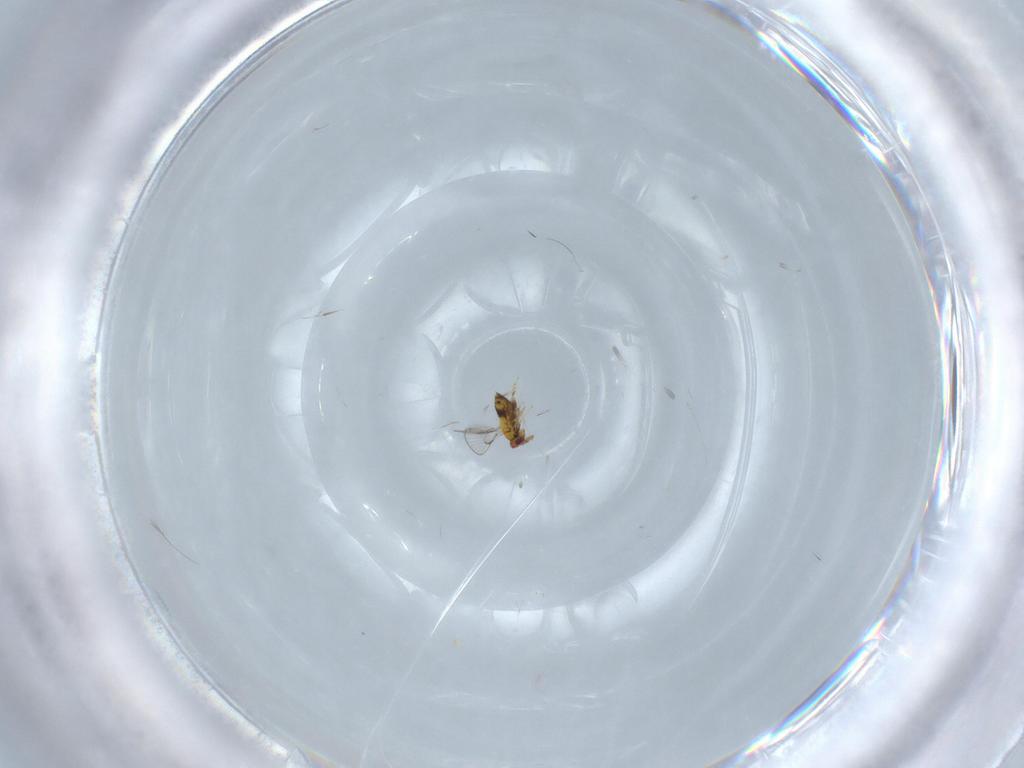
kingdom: Animalia
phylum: Arthropoda
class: Insecta
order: Hymenoptera
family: Trichogrammatidae
